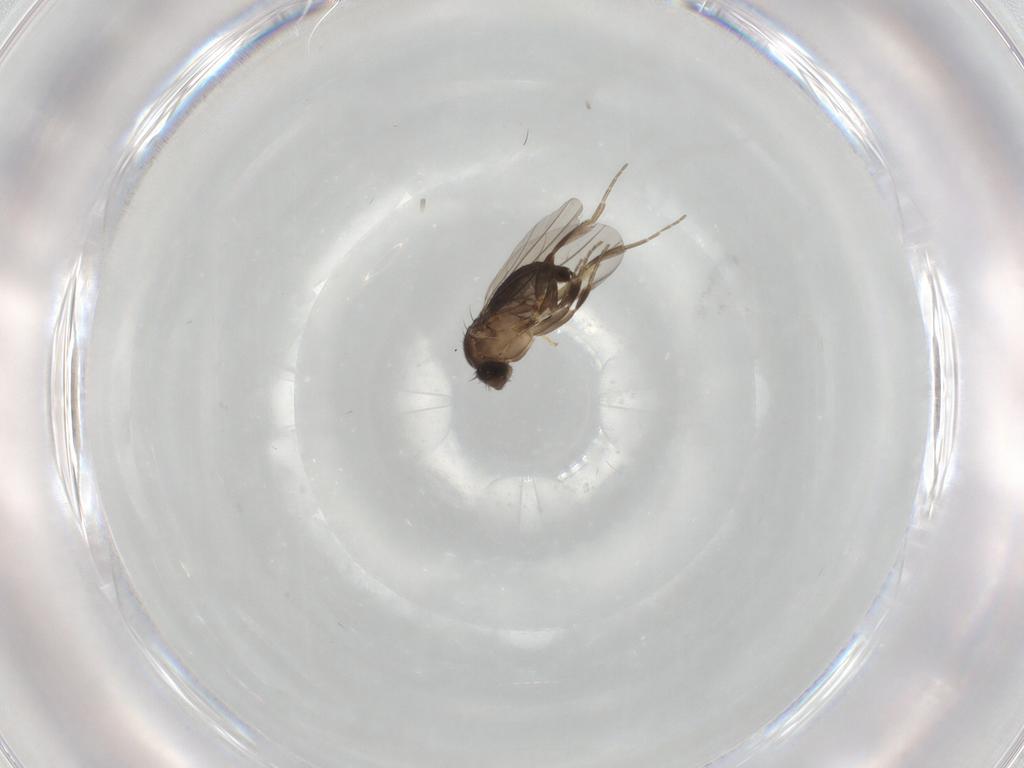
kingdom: Animalia
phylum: Arthropoda
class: Insecta
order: Diptera
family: Phoridae
